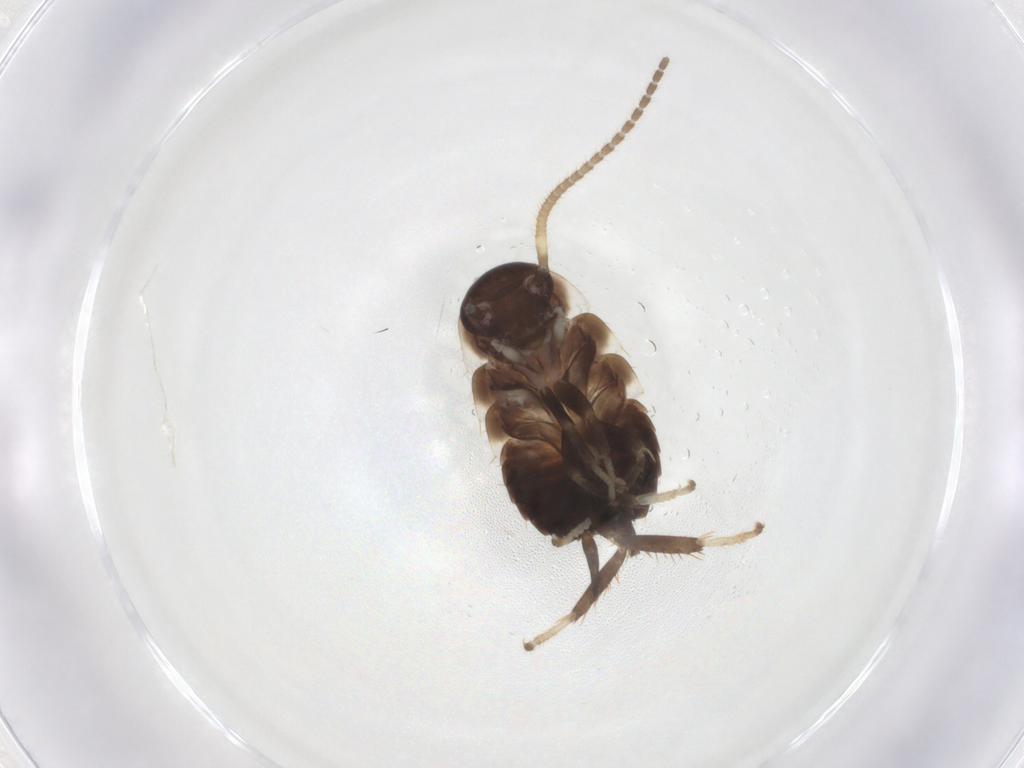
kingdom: Animalia
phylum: Arthropoda
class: Insecta
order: Blattodea
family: Blaberidae
